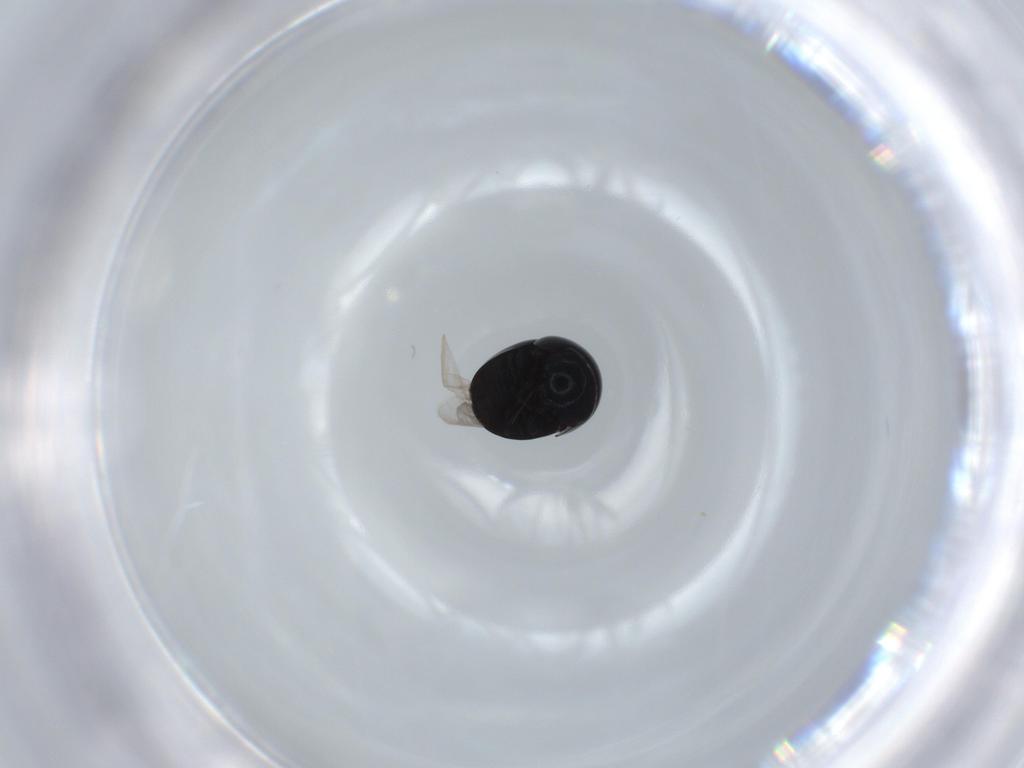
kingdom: Animalia
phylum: Arthropoda
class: Insecta
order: Coleoptera
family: Cybocephalidae
